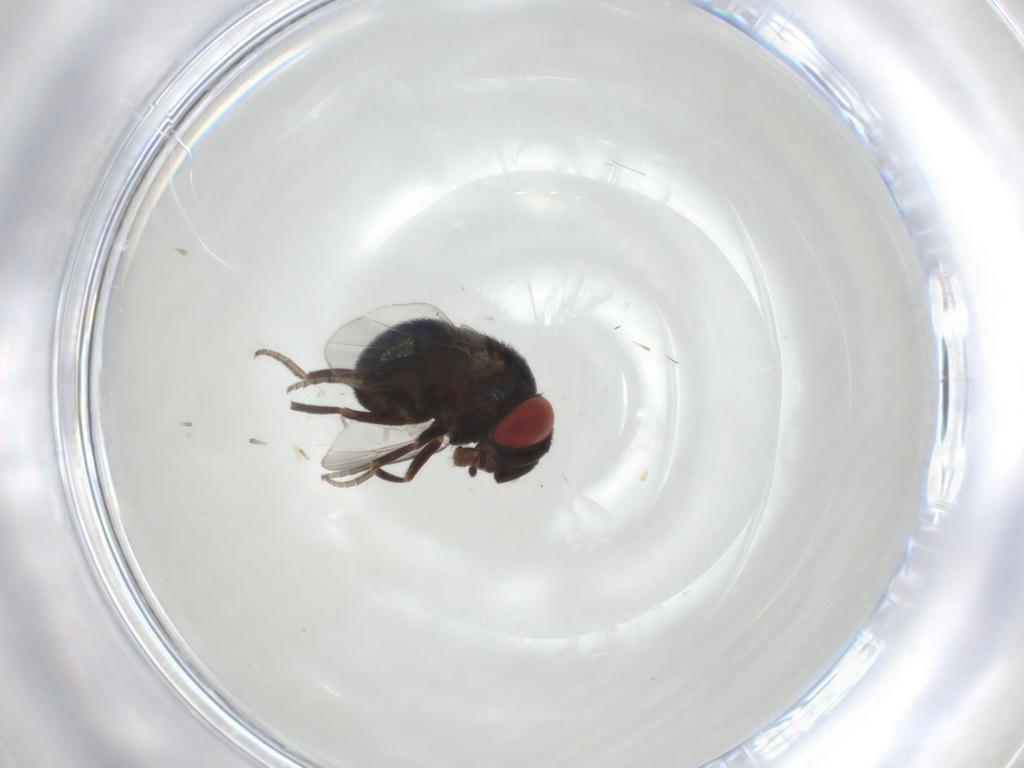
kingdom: Animalia
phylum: Arthropoda
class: Insecta
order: Diptera
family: Cryptochetidae
